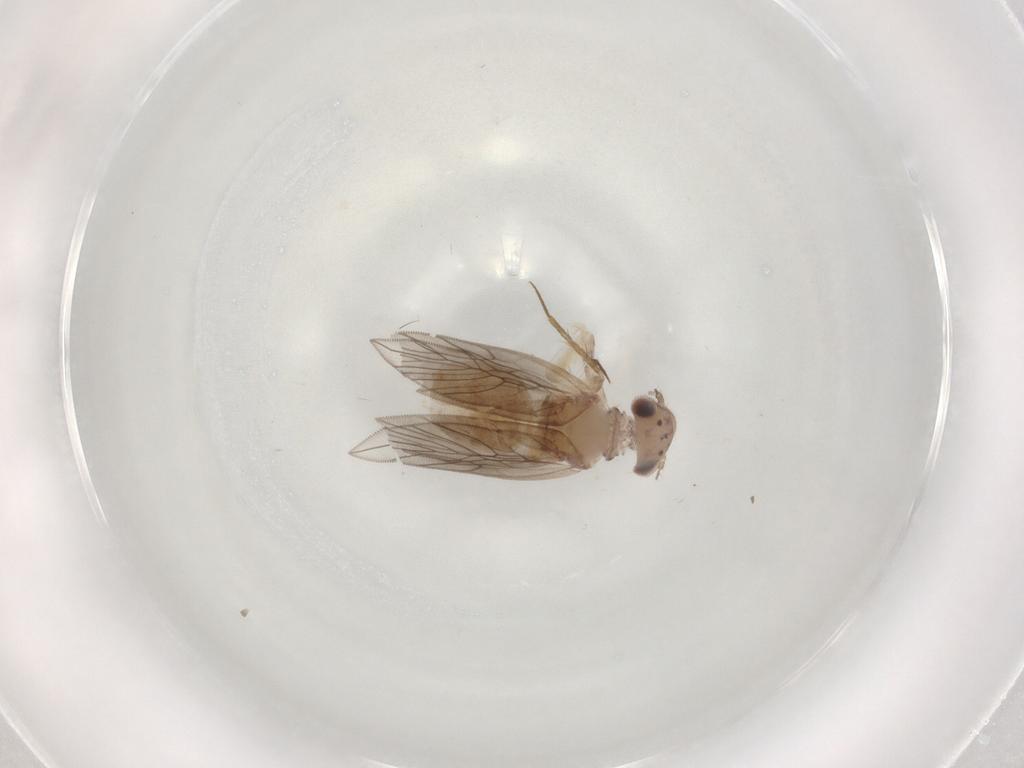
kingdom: Animalia
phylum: Arthropoda
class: Insecta
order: Psocodea
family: Lepidopsocidae
